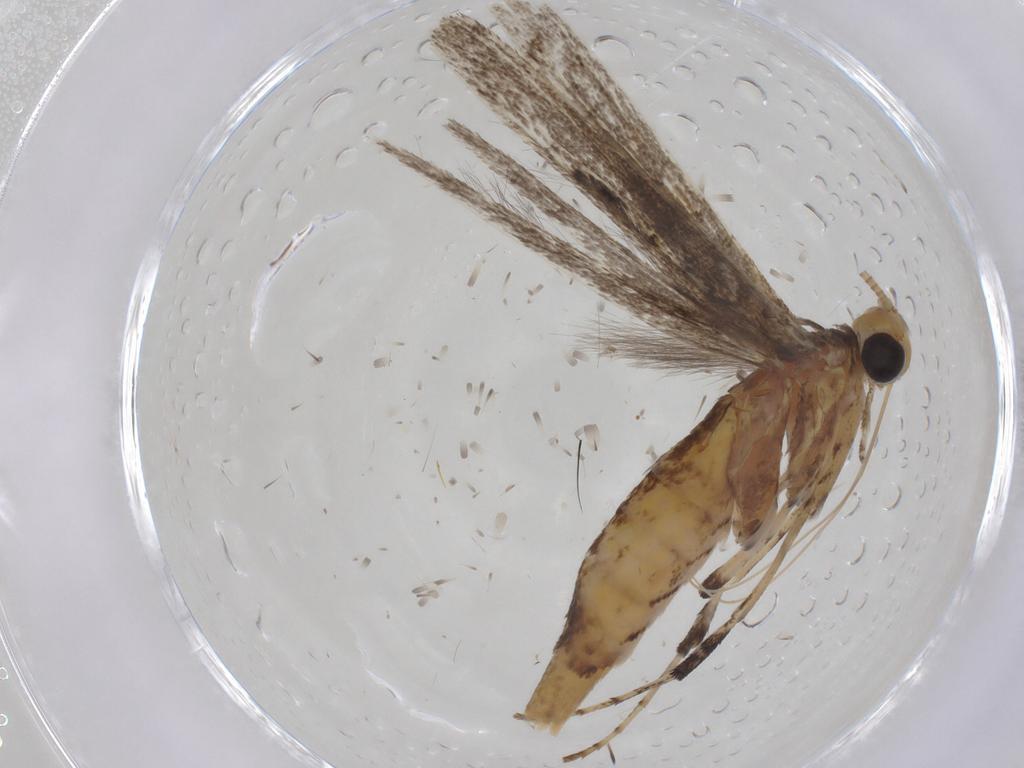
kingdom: Animalia
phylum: Arthropoda
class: Insecta
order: Lepidoptera
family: Gracillariidae
